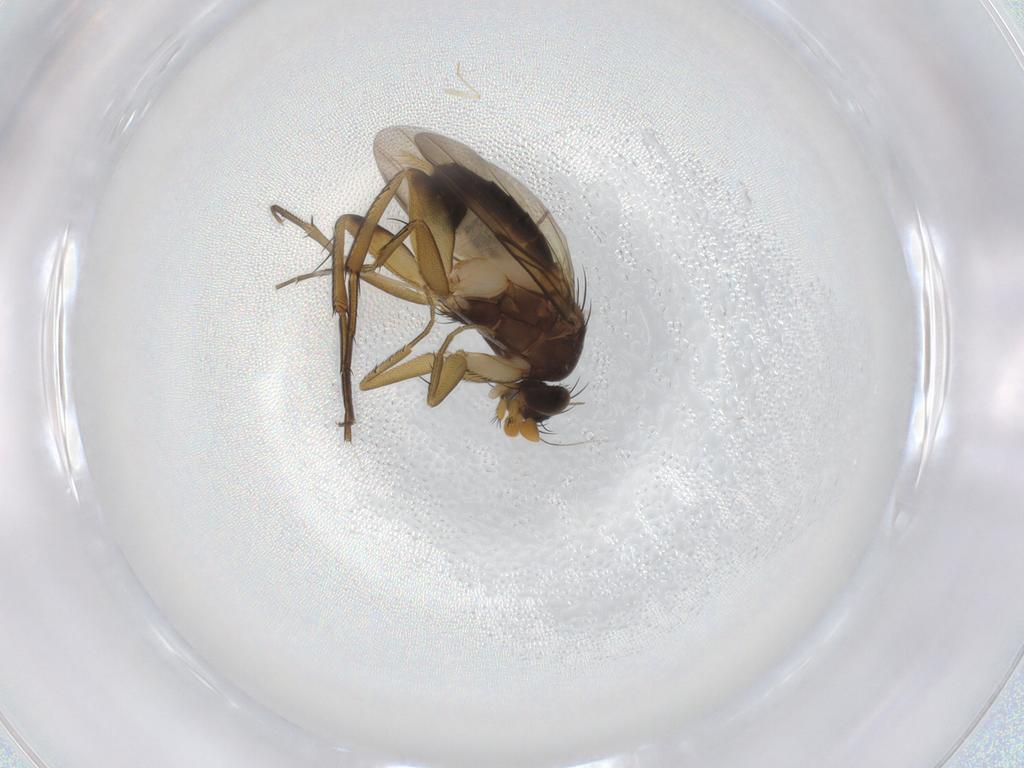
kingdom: Animalia
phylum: Arthropoda
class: Insecta
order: Diptera
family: Phoridae
